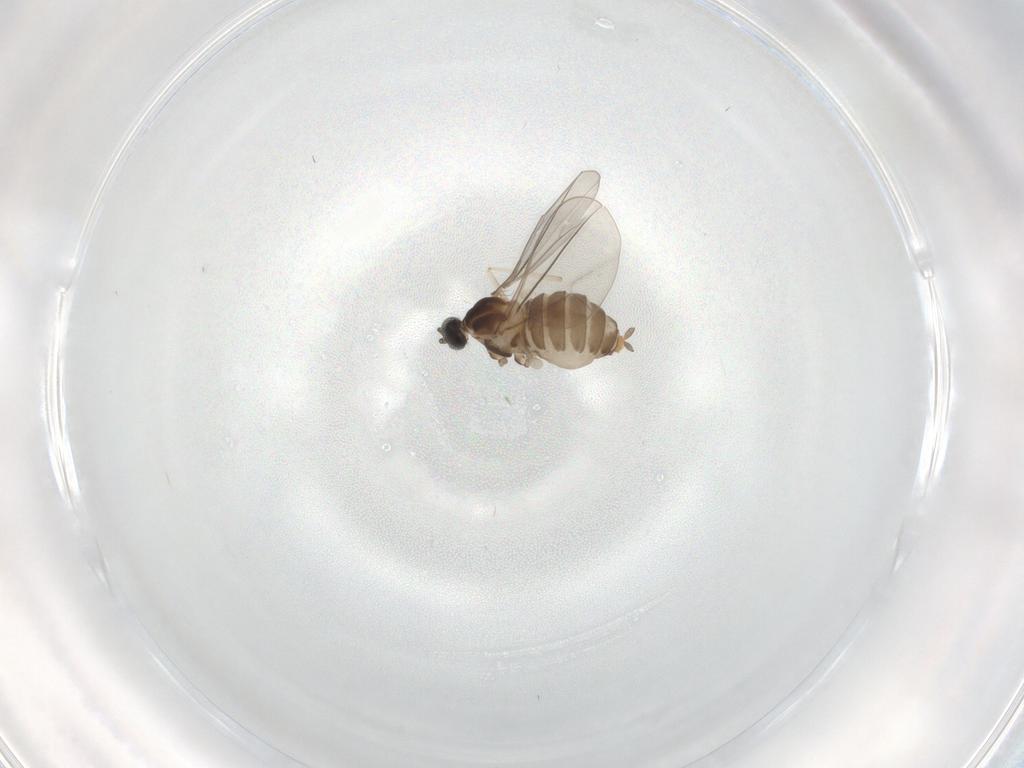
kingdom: Animalia
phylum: Arthropoda
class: Insecta
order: Diptera
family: Cecidomyiidae
